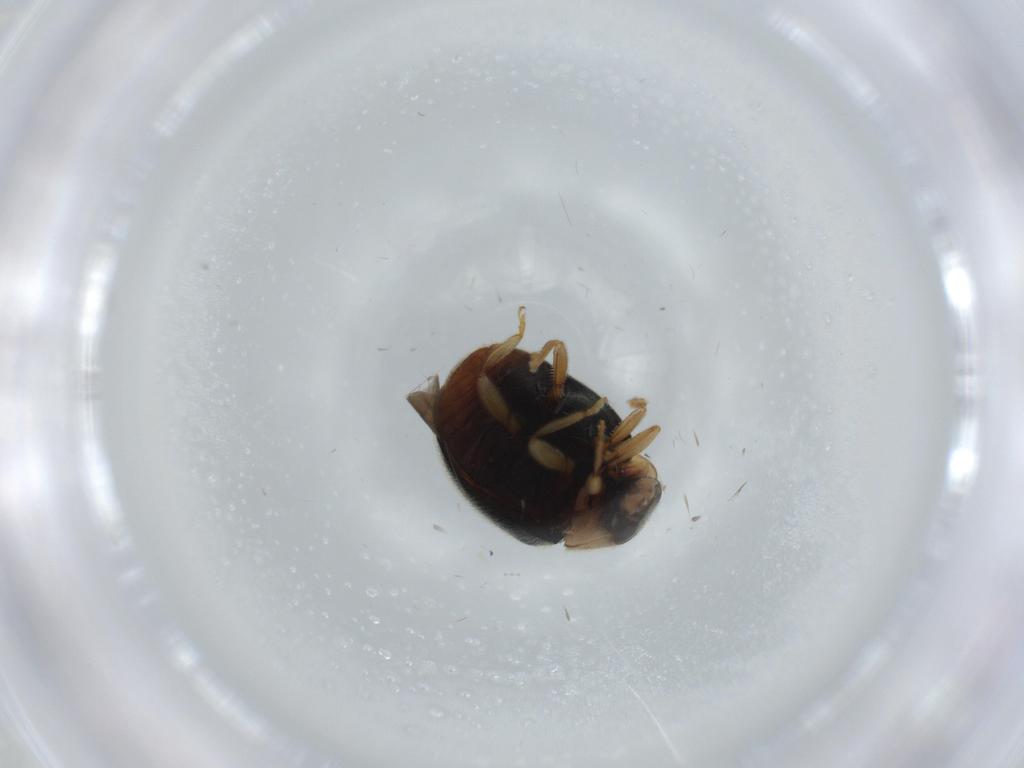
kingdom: Animalia
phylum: Arthropoda
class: Insecta
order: Coleoptera
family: Chrysomelidae
